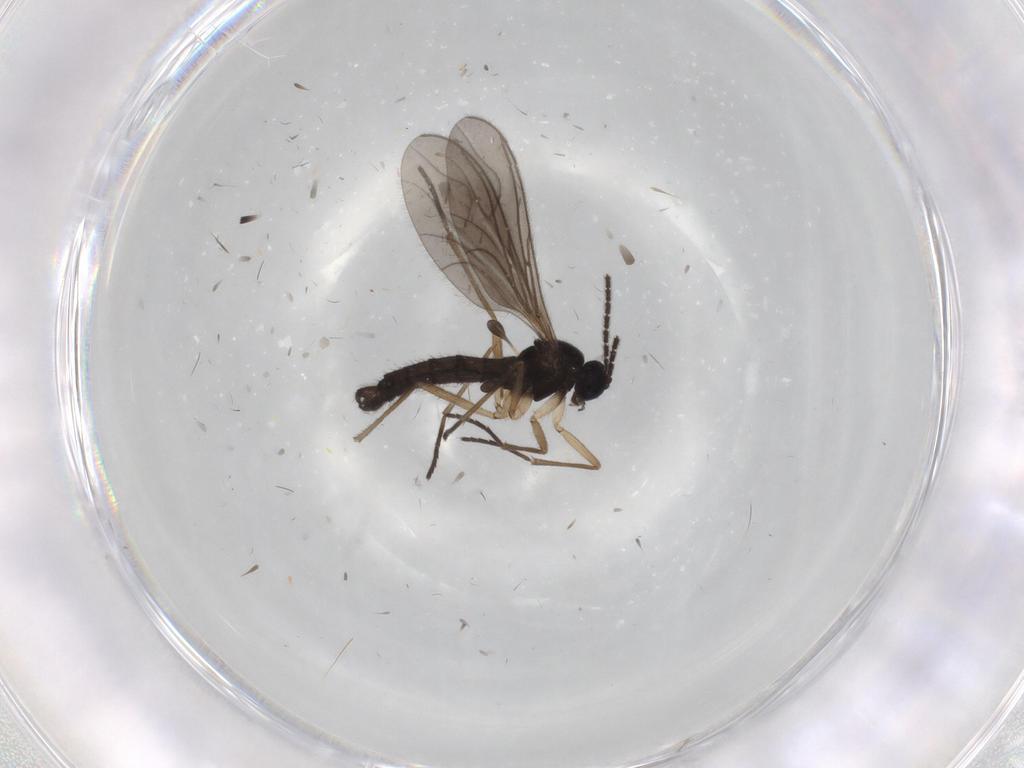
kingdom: Animalia
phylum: Arthropoda
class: Insecta
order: Diptera
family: Sciaridae
